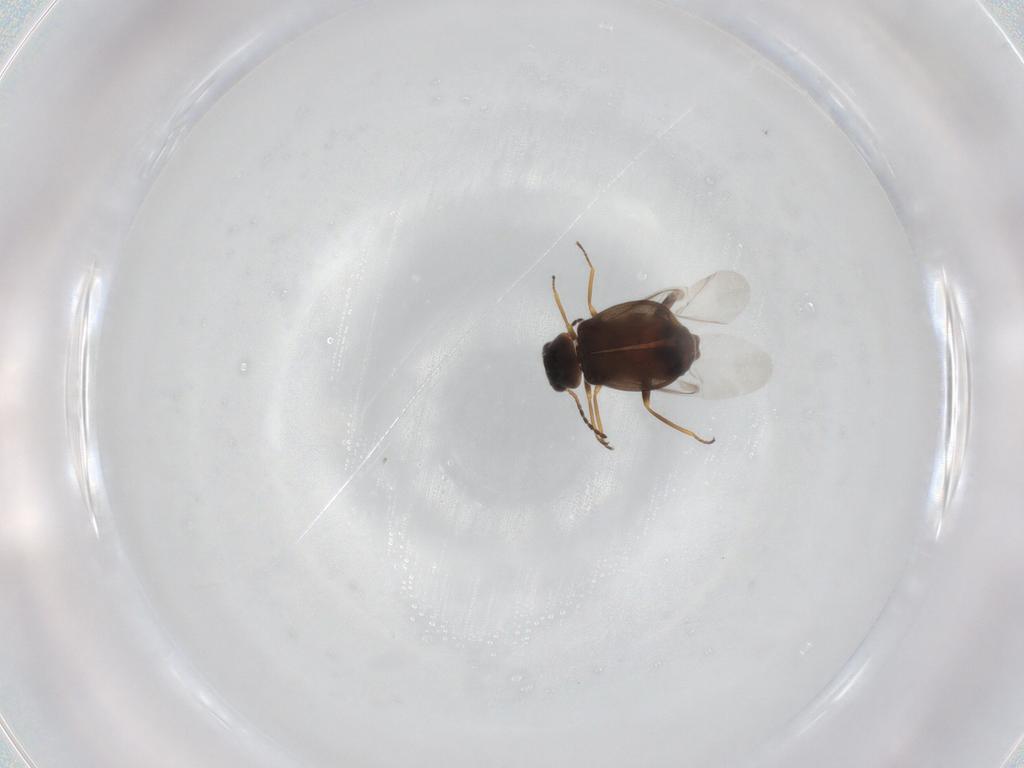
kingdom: Animalia
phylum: Arthropoda
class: Insecta
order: Coleoptera
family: Melyridae
